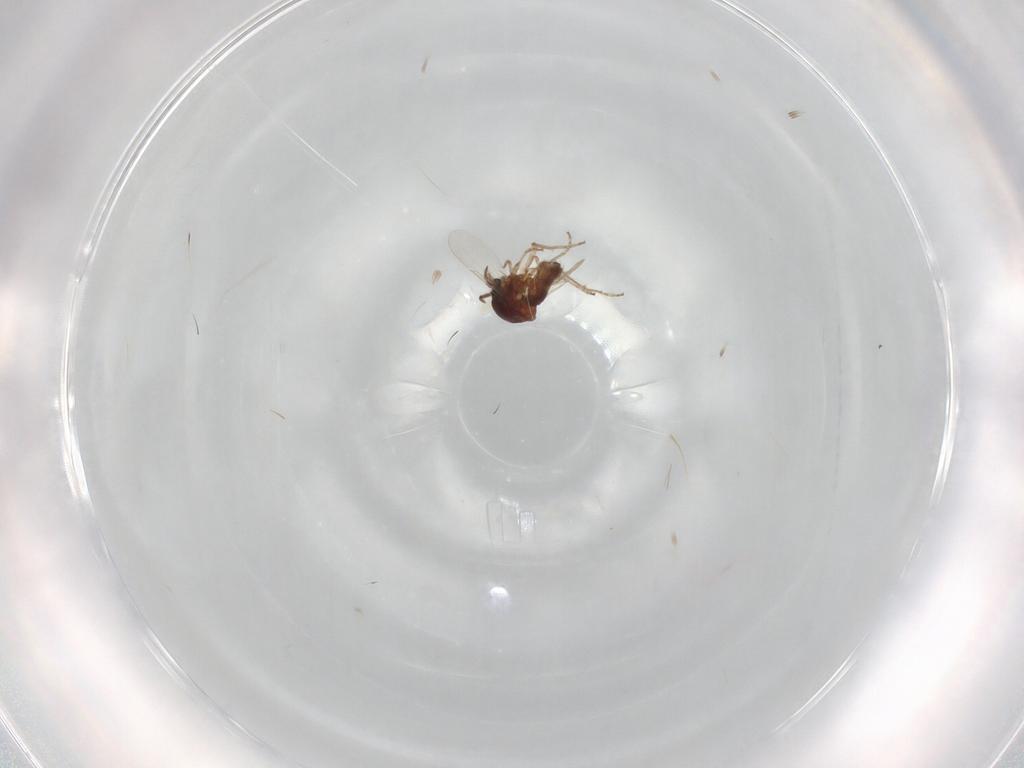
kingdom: Animalia
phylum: Arthropoda
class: Insecta
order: Diptera
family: Ceratopogonidae
